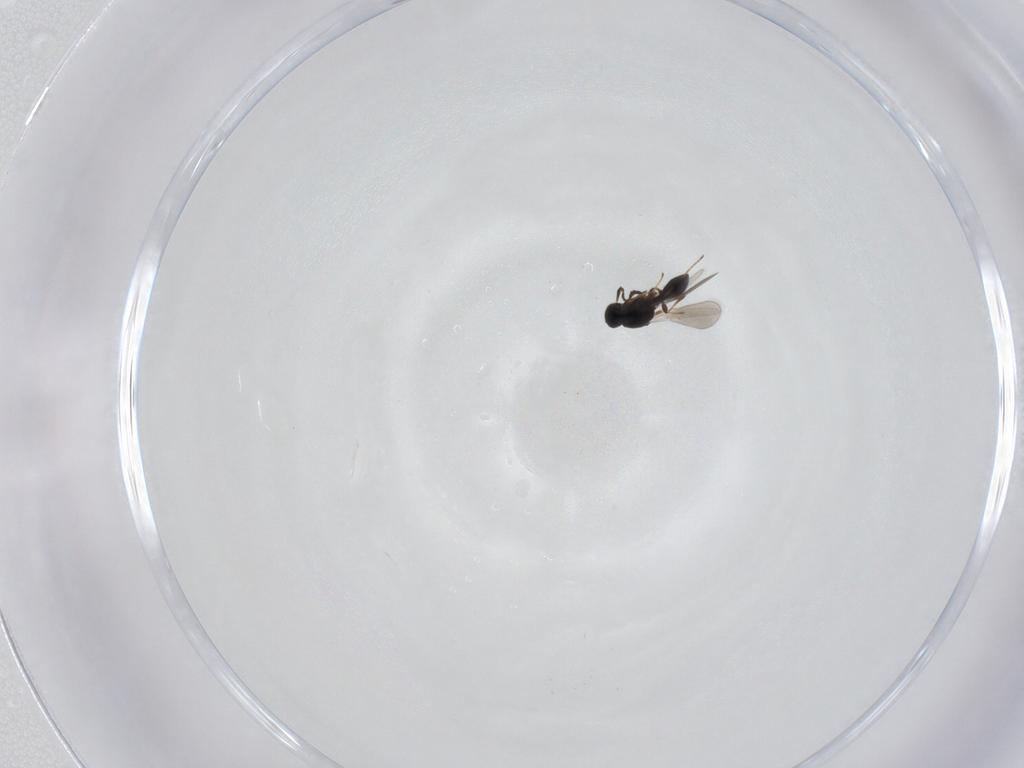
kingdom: Animalia
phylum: Arthropoda
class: Insecta
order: Hymenoptera
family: Platygastridae
